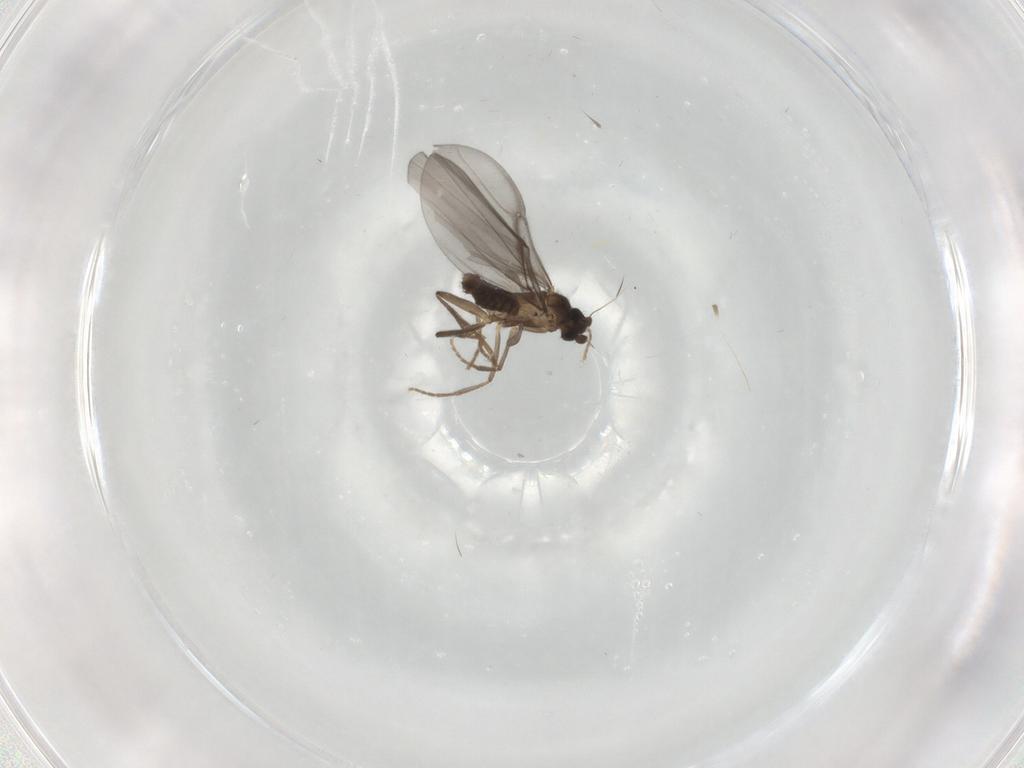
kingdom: Animalia
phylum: Arthropoda
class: Insecta
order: Diptera
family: Phoridae
